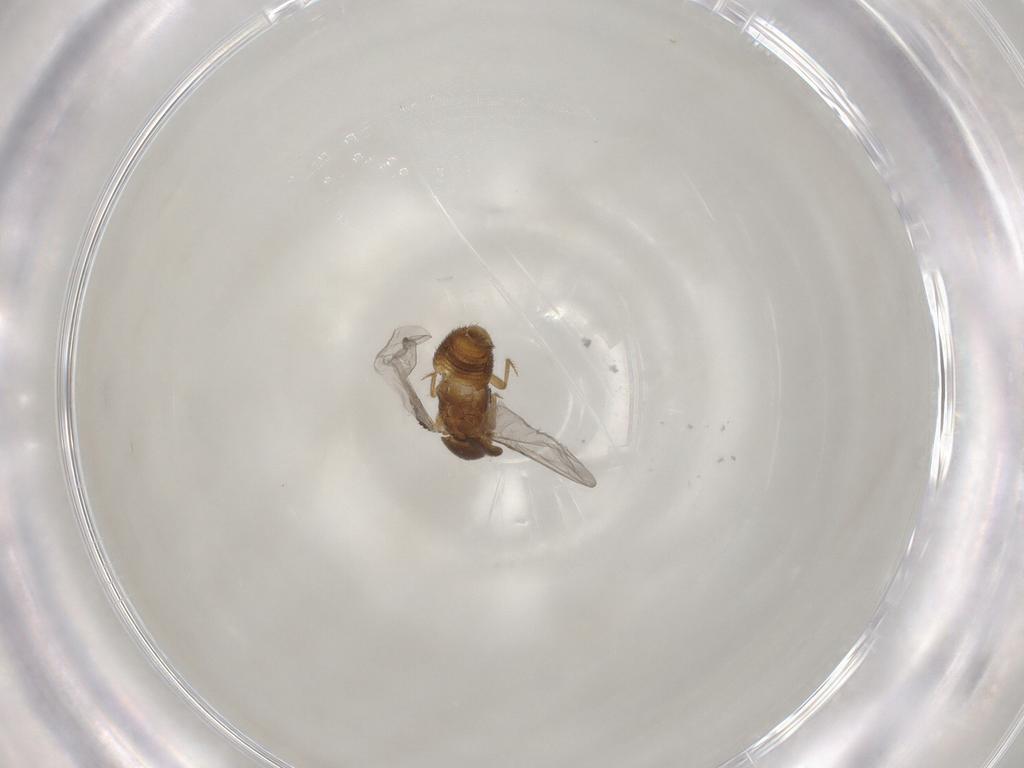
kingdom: Animalia
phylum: Arthropoda
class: Insecta
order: Coleoptera
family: Staphylinidae
